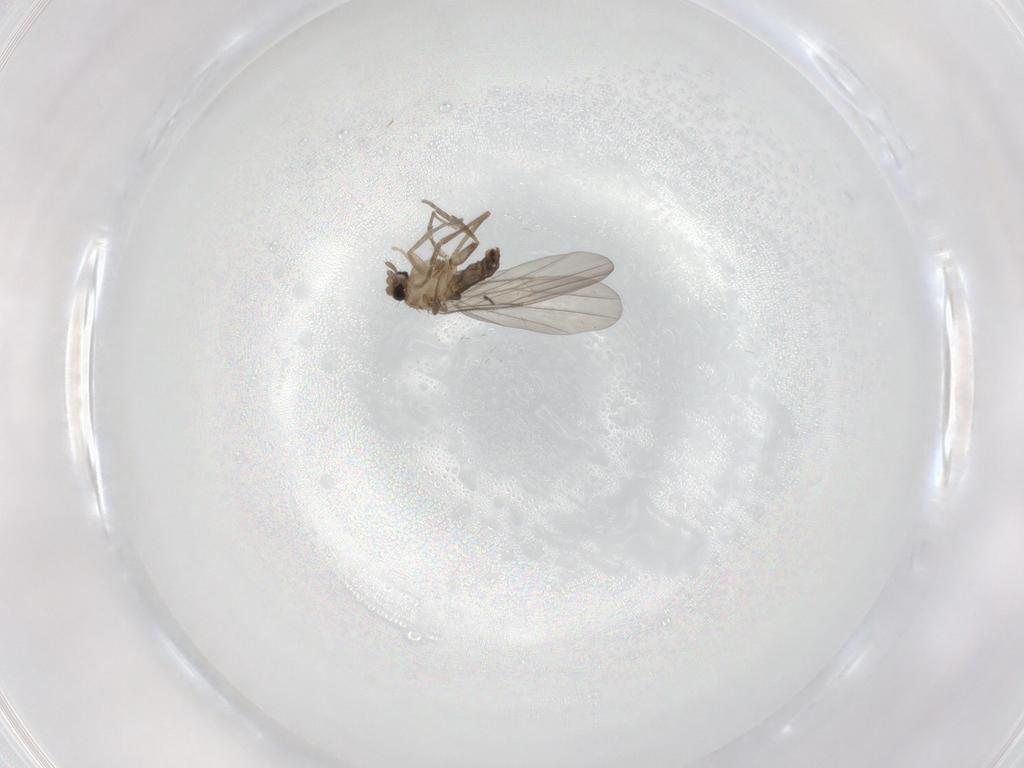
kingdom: Animalia
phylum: Arthropoda
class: Insecta
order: Diptera
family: Sciaridae
